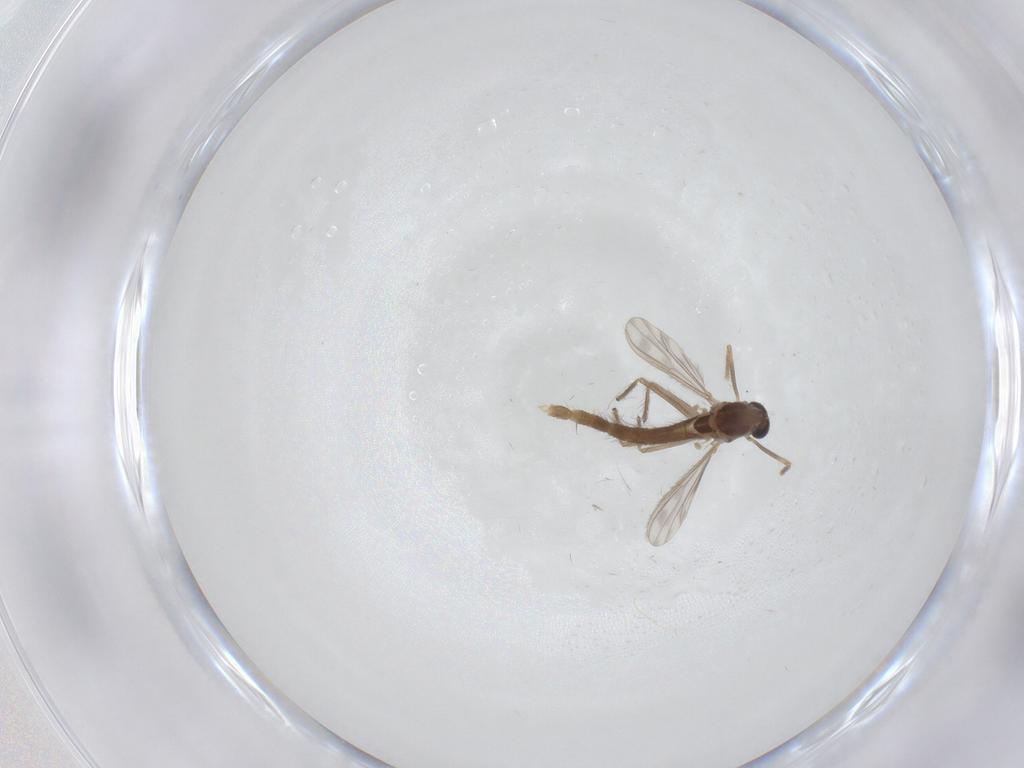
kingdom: Animalia
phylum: Arthropoda
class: Insecta
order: Diptera
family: Chironomidae
